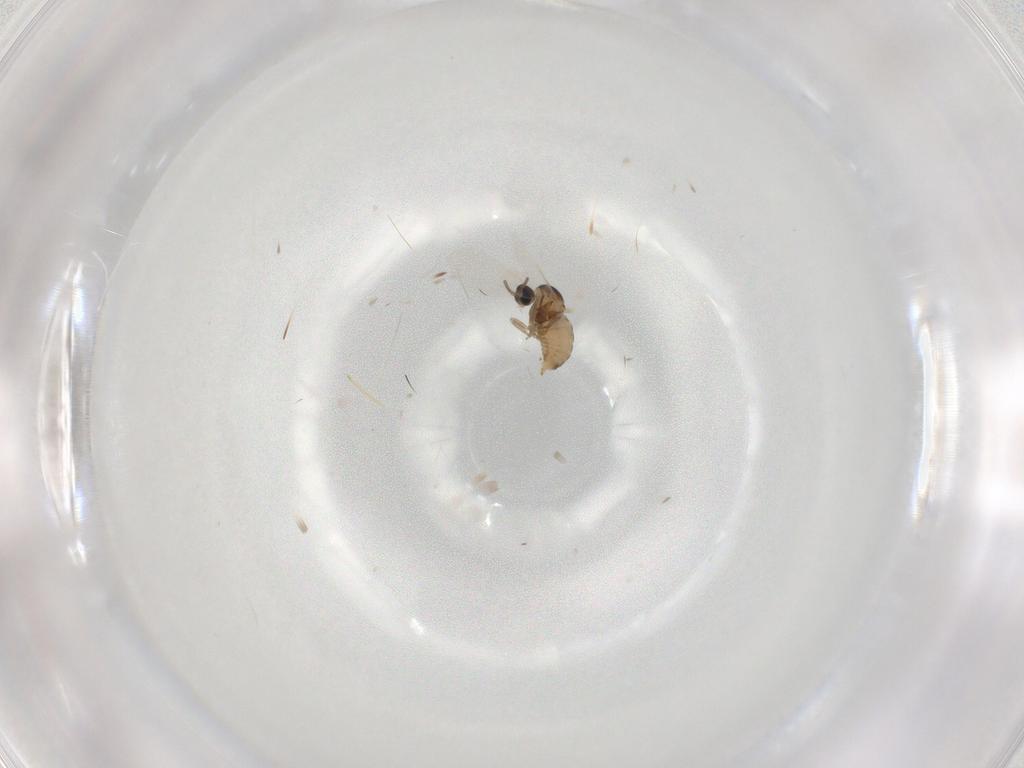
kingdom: Animalia
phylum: Arthropoda
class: Insecta
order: Diptera
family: Cecidomyiidae
